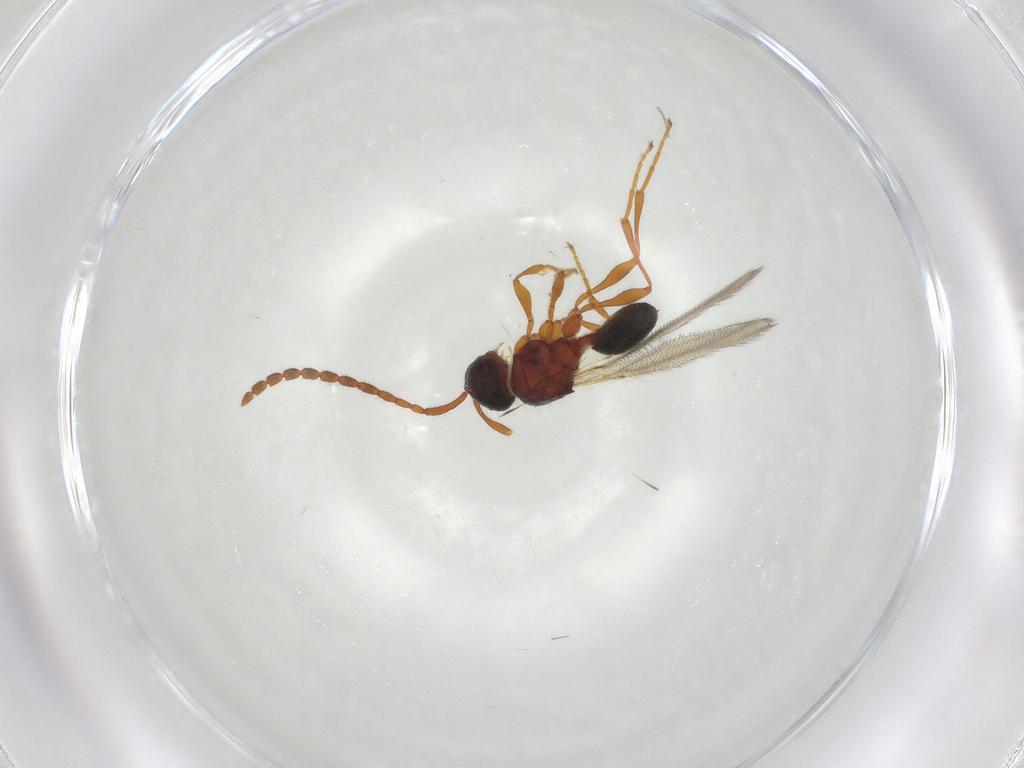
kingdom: Animalia
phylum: Arthropoda
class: Insecta
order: Hymenoptera
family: Diapriidae
